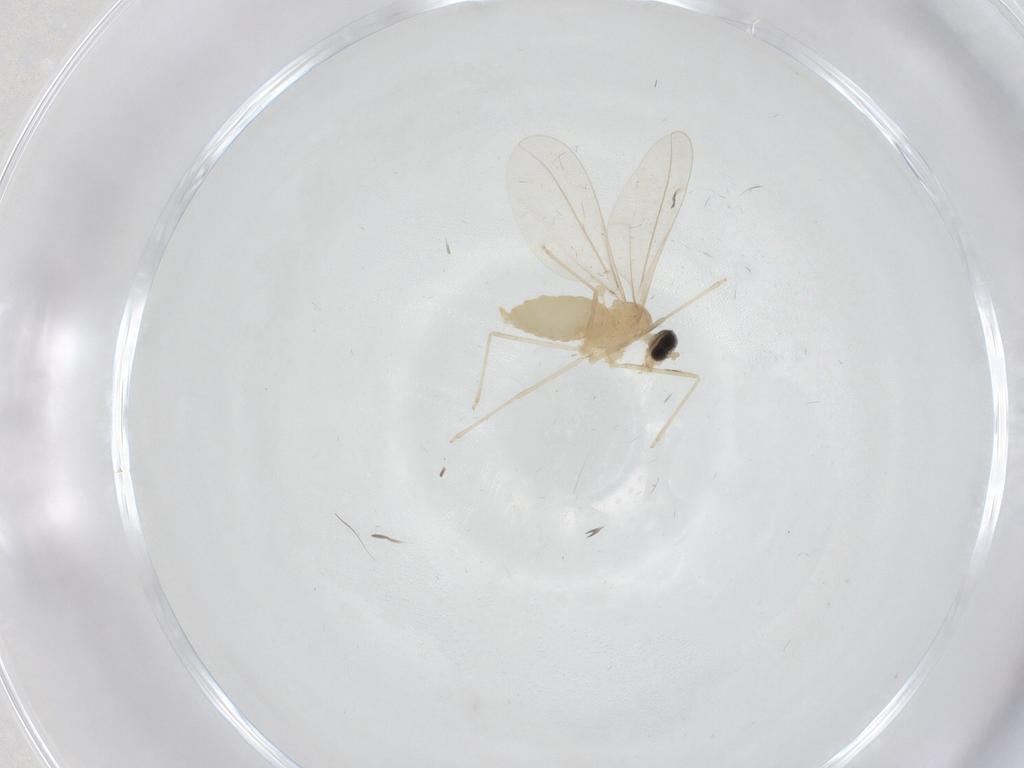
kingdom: Animalia
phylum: Arthropoda
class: Insecta
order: Diptera
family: Cecidomyiidae
